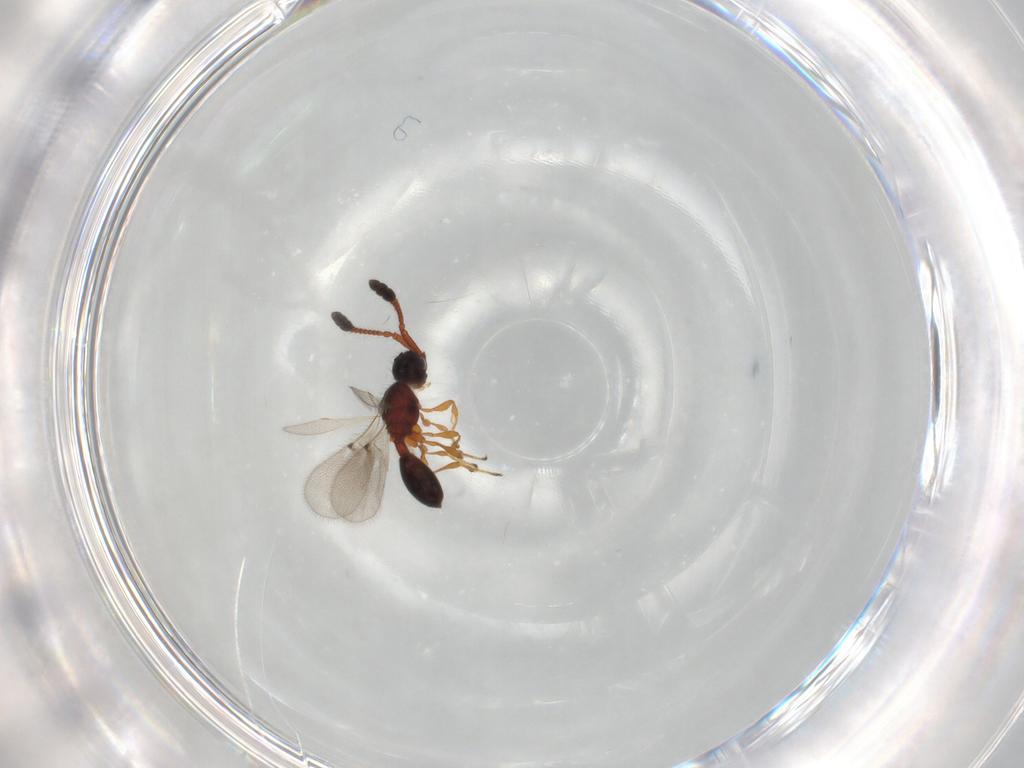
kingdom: Animalia
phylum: Arthropoda
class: Insecta
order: Hymenoptera
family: Diapriidae
